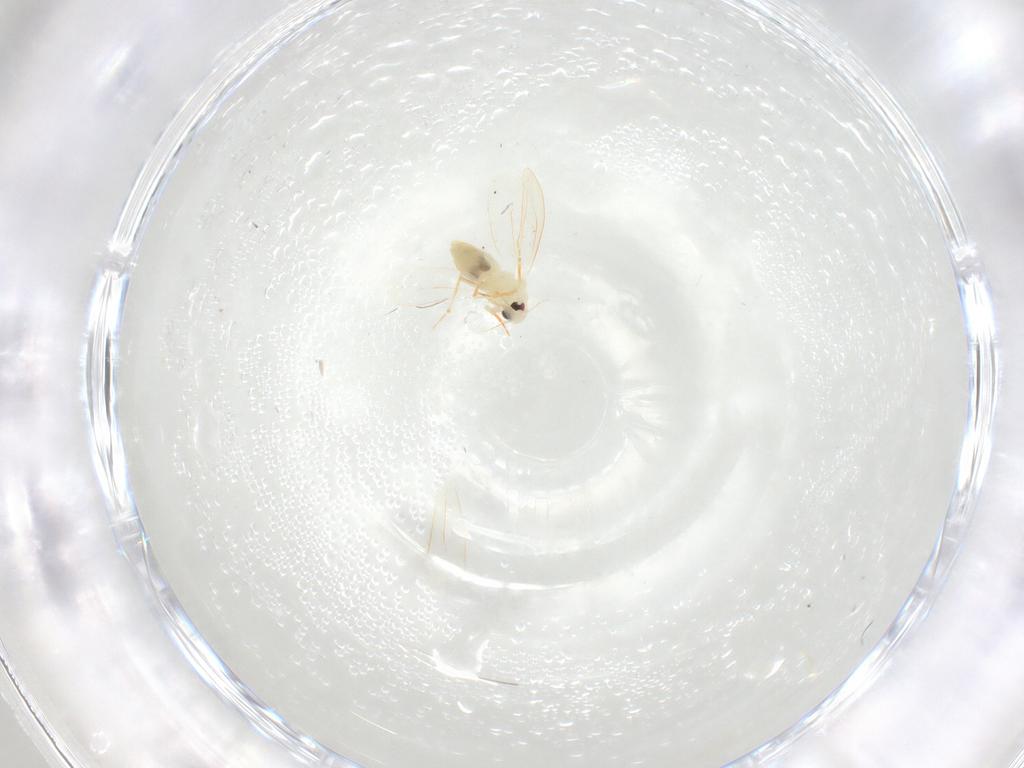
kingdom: Animalia
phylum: Arthropoda
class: Insecta
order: Hemiptera
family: Aleyrodidae
